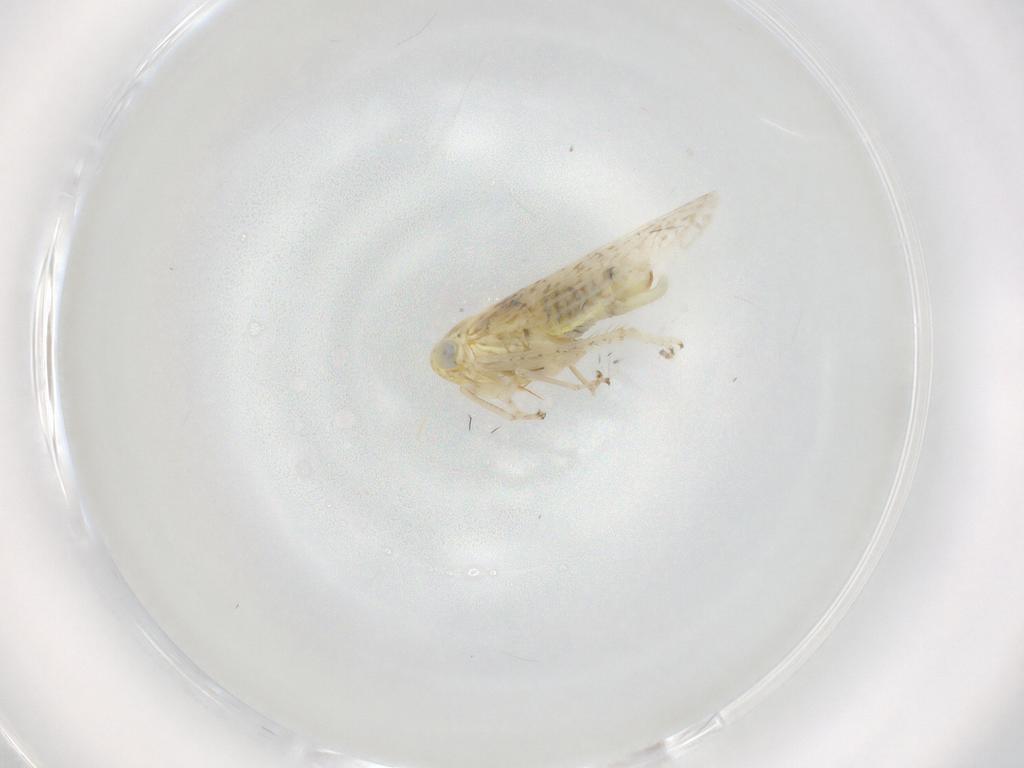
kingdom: Animalia
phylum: Arthropoda
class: Insecta
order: Hemiptera
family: Cicadellidae
